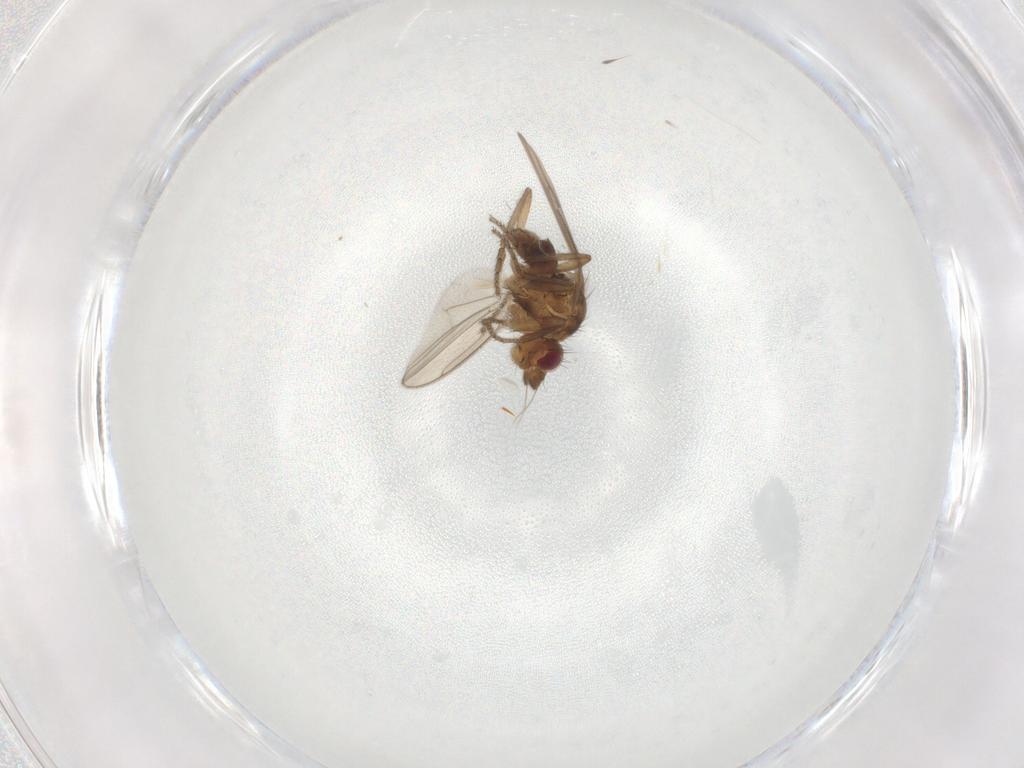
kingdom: Animalia
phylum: Arthropoda
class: Insecta
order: Diptera
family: Sphaeroceridae
